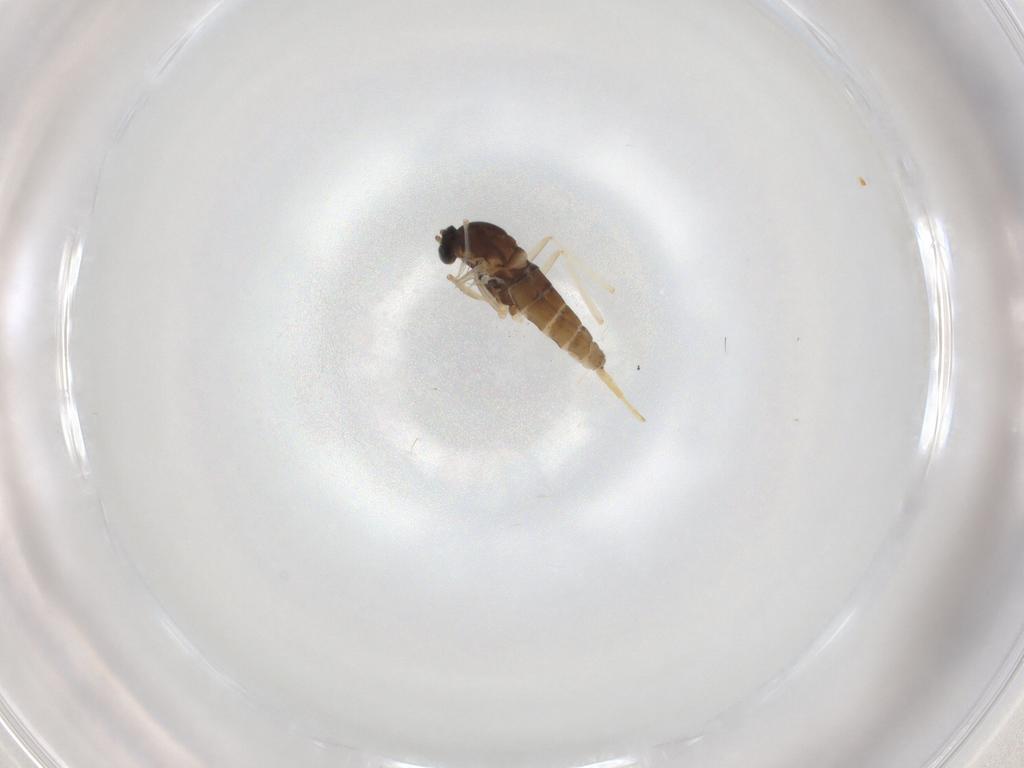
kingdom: Animalia
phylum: Arthropoda
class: Insecta
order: Diptera
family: Cecidomyiidae
